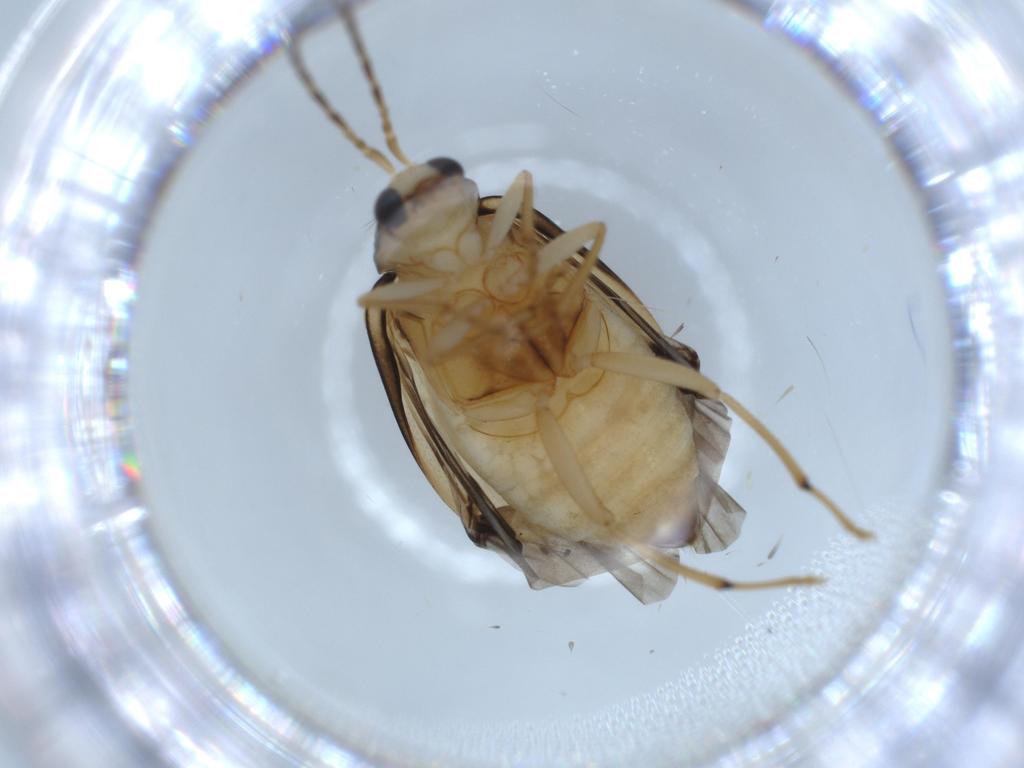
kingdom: Animalia
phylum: Arthropoda
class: Insecta
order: Coleoptera
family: Chrysomelidae
